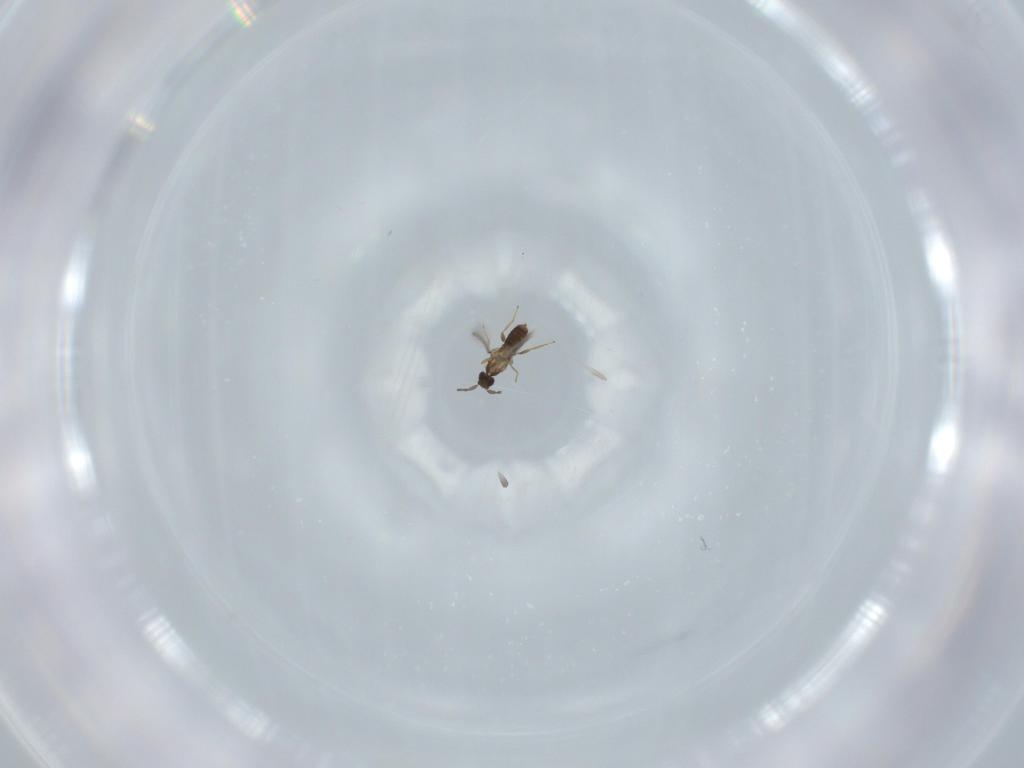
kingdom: Animalia
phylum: Arthropoda
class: Insecta
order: Hymenoptera
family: Mymaridae
